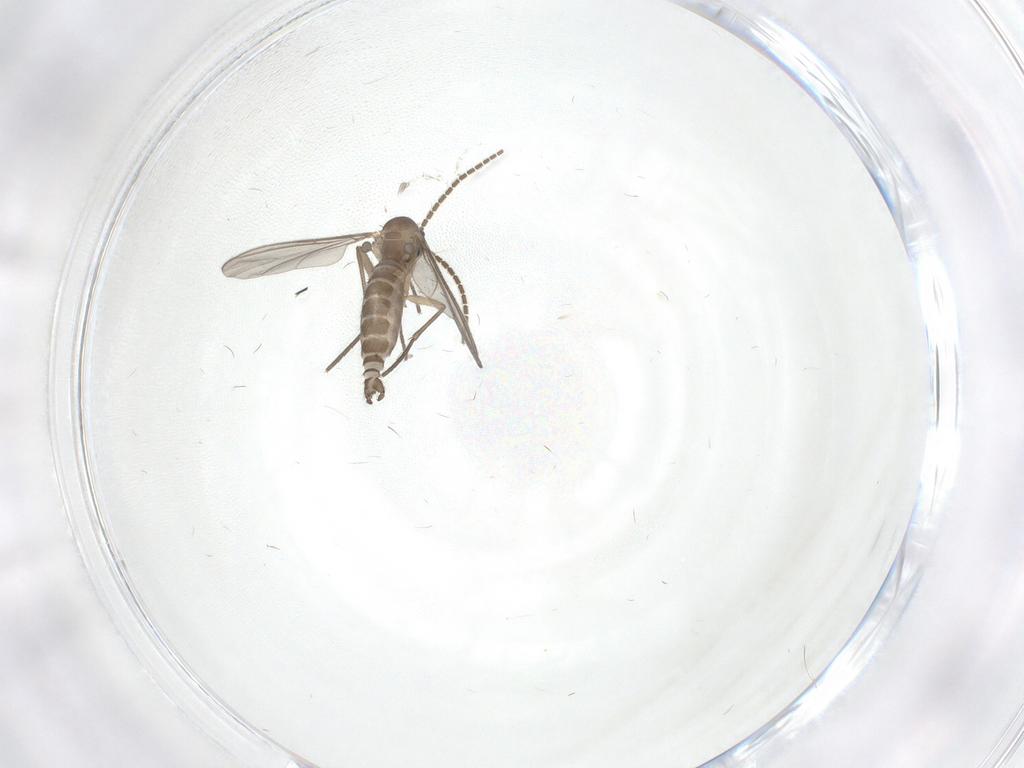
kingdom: Animalia
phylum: Arthropoda
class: Insecta
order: Diptera
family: Sciaridae
